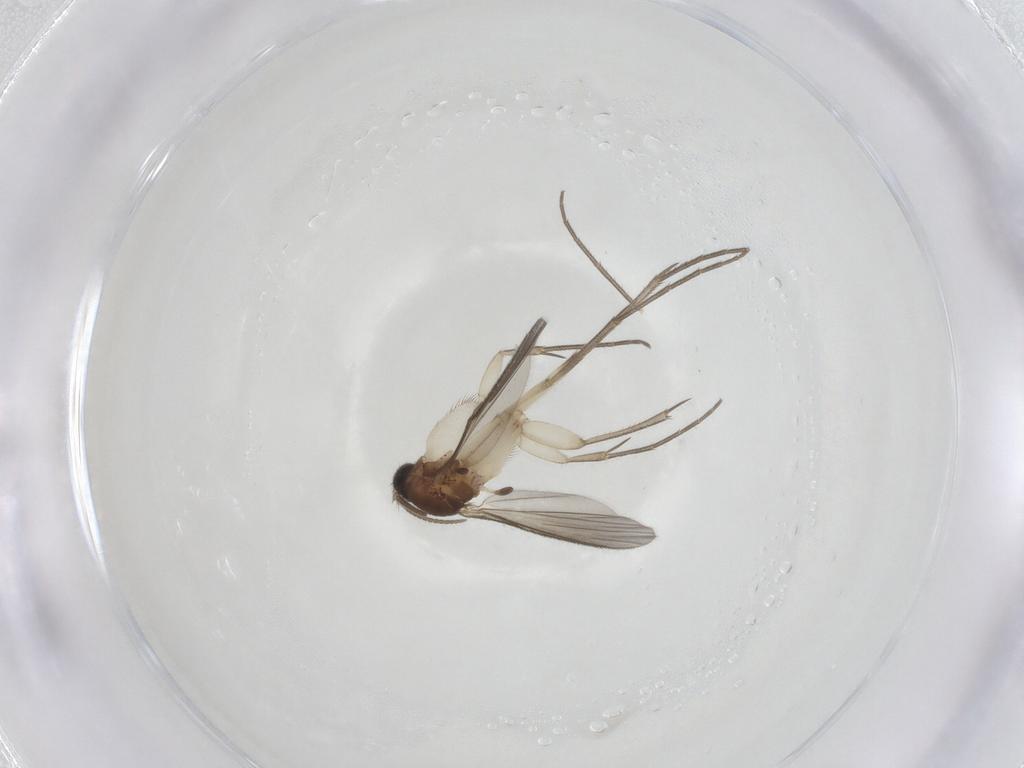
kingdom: Animalia
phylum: Arthropoda
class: Insecta
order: Diptera
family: Mycetophilidae
